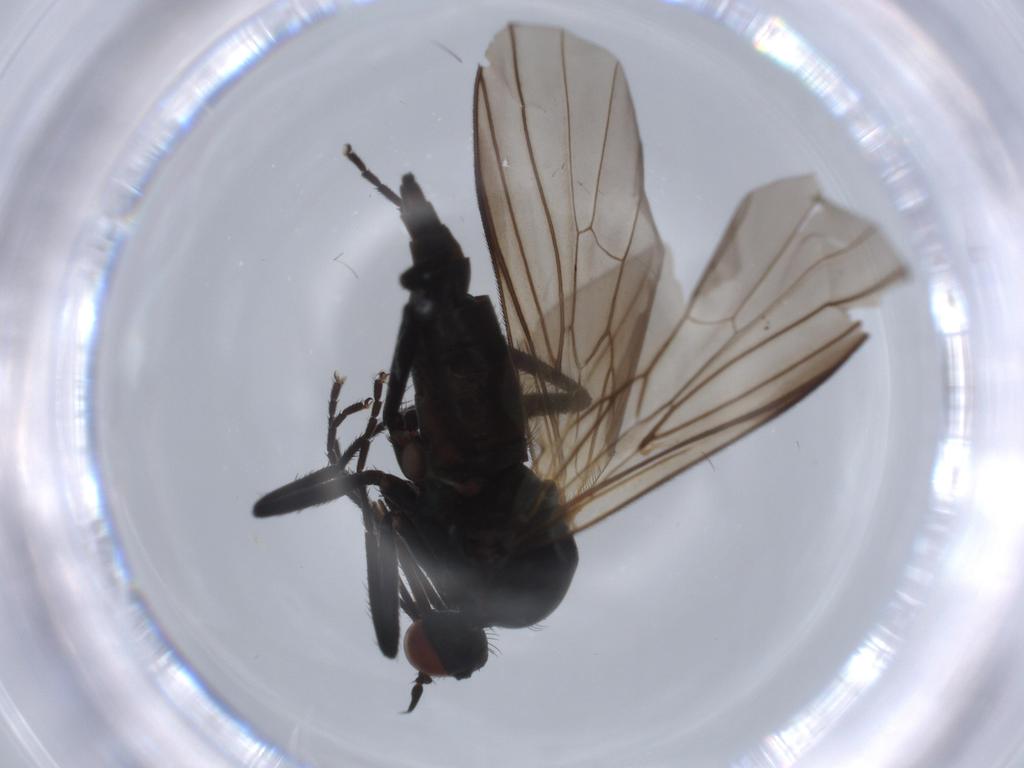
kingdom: Animalia
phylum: Arthropoda
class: Insecta
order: Diptera
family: Empididae
